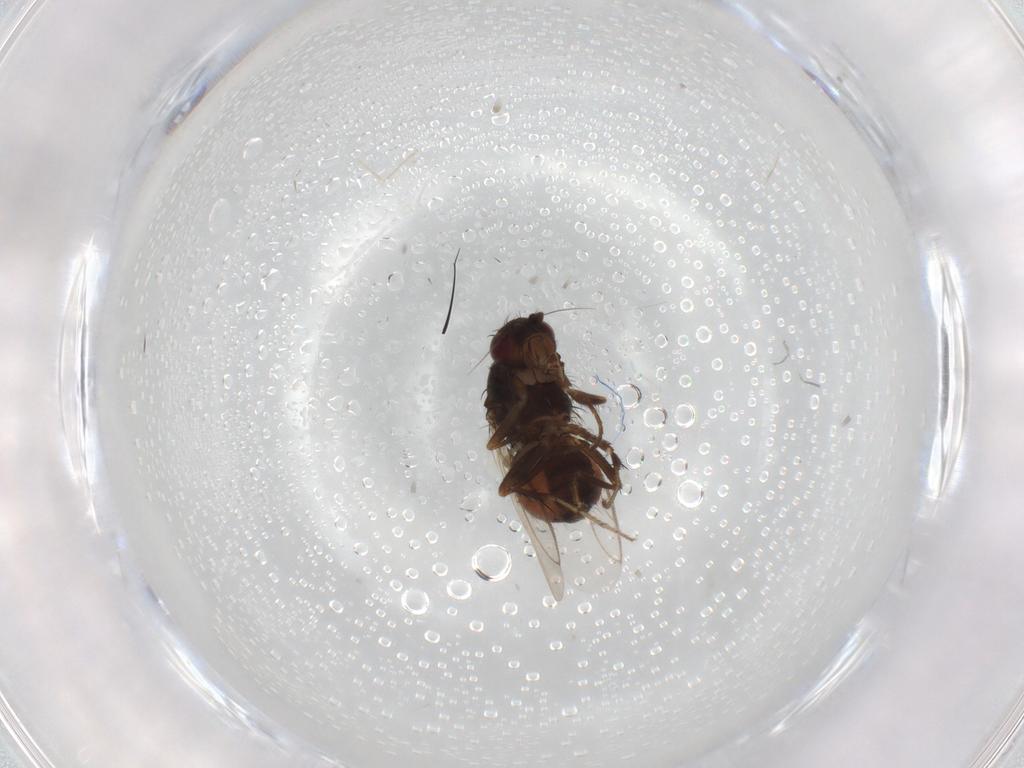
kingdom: Animalia
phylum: Arthropoda
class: Insecta
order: Diptera
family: Sphaeroceridae
